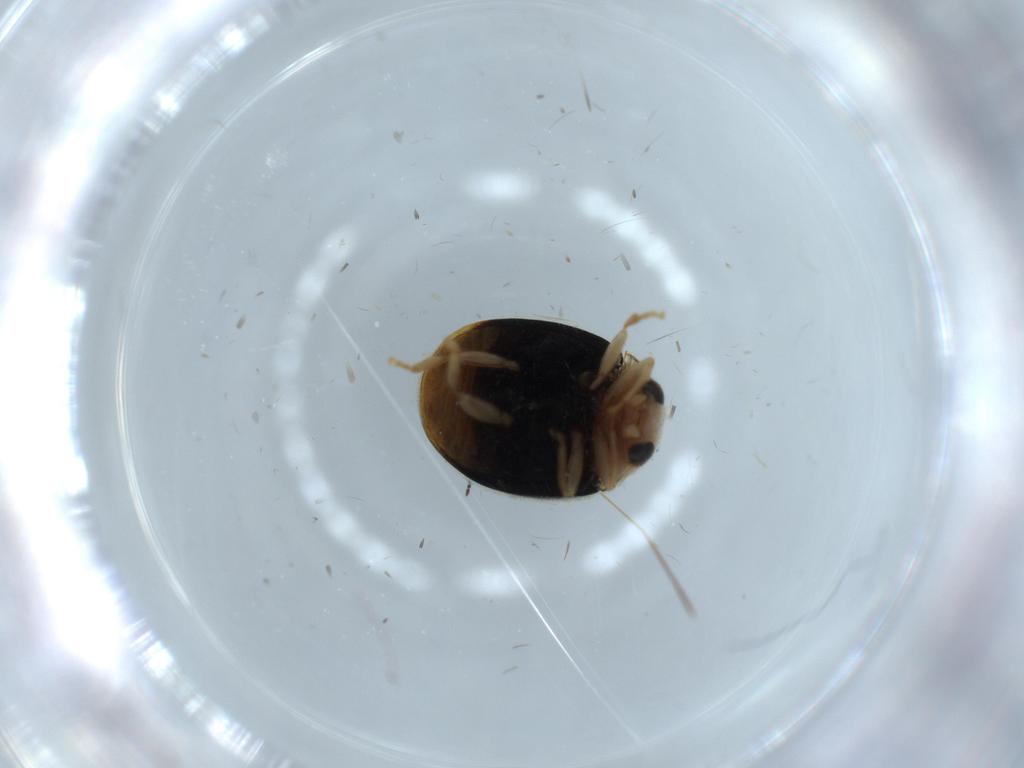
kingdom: Animalia
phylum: Arthropoda
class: Insecta
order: Coleoptera
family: Coccinellidae
